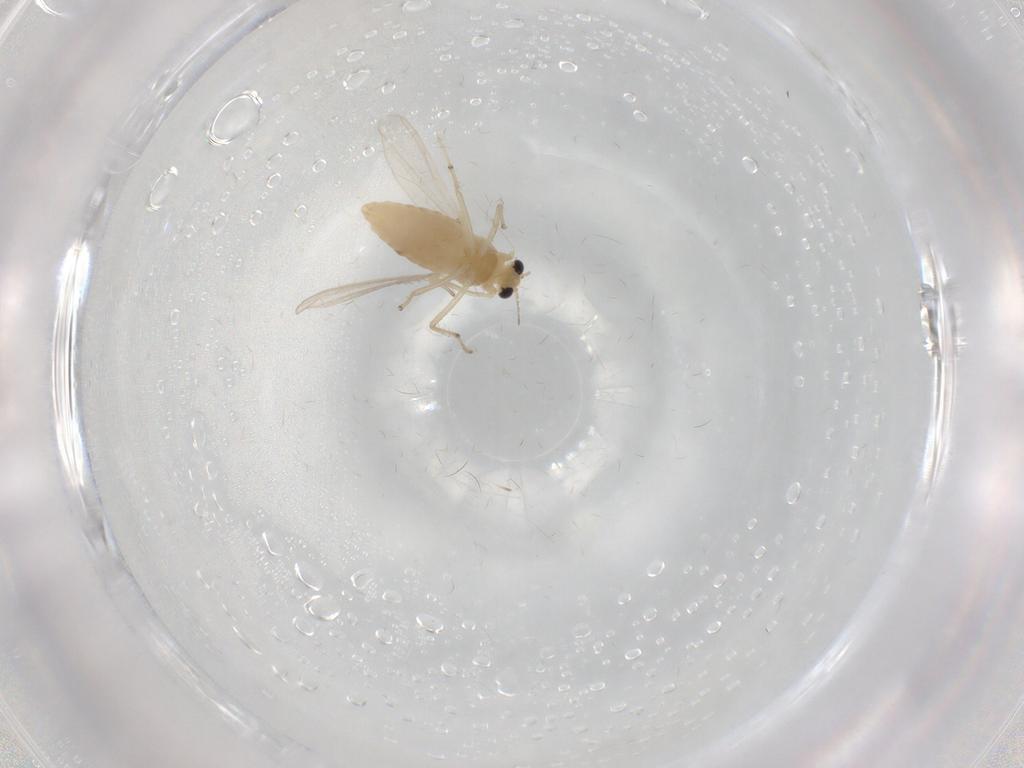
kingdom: Animalia
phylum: Arthropoda
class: Insecta
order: Diptera
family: Chironomidae
